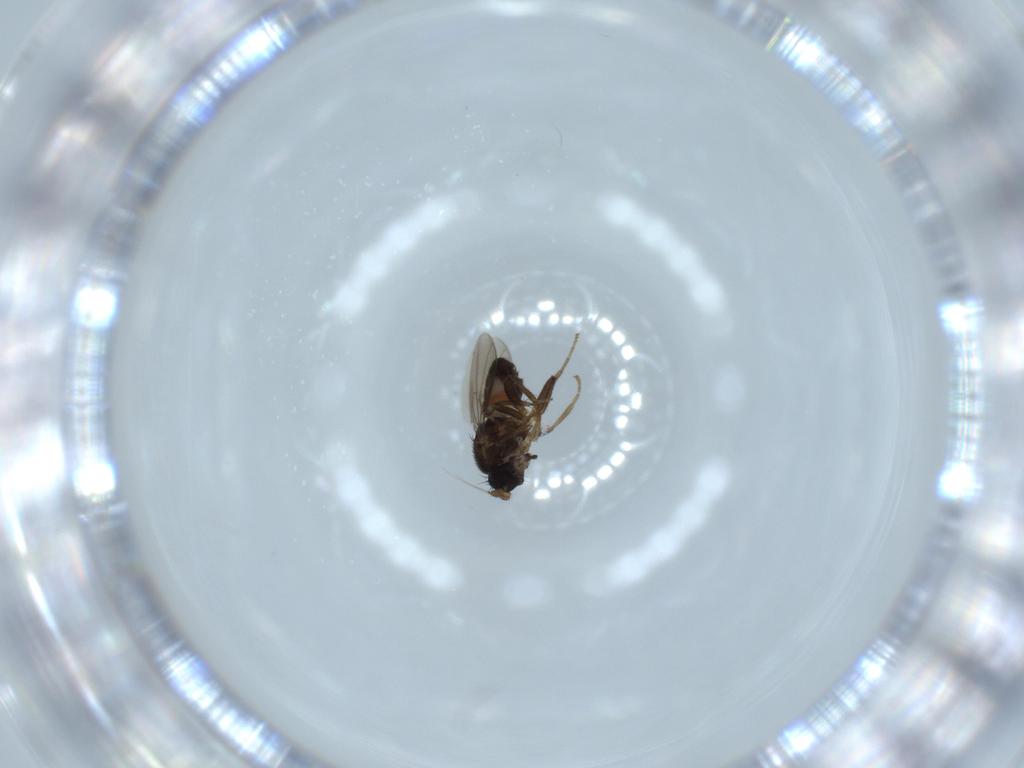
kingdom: Animalia
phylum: Arthropoda
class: Insecta
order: Diptera
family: Sphaeroceridae
